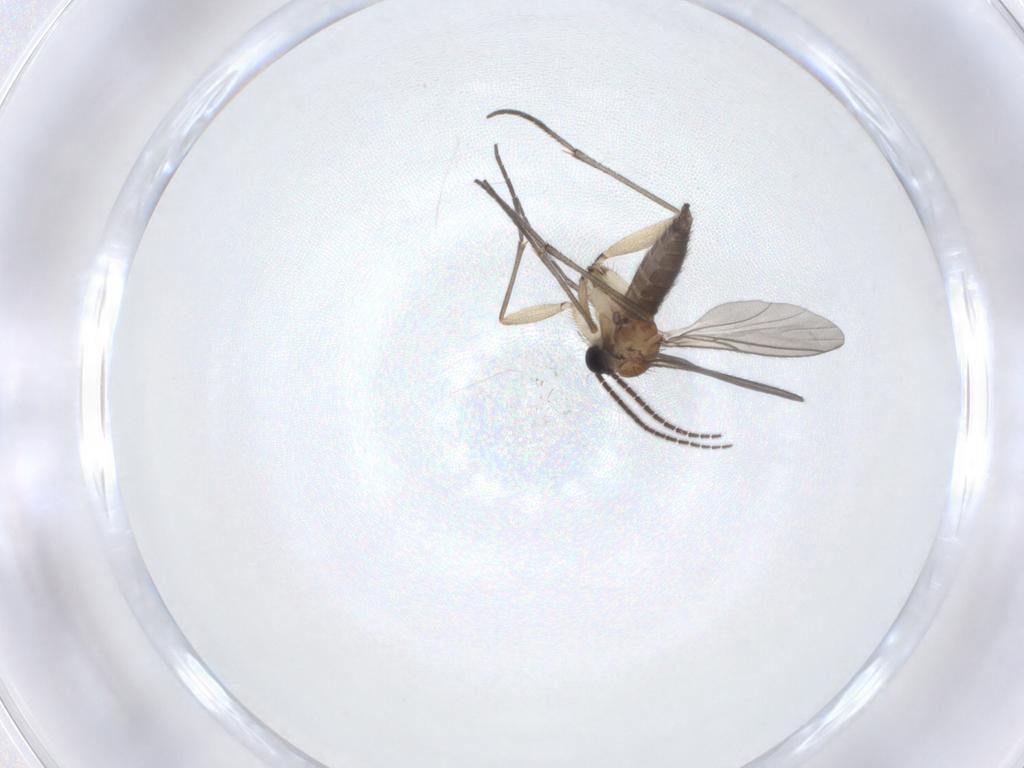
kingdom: Animalia
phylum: Arthropoda
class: Insecta
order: Diptera
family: Sciaridae
